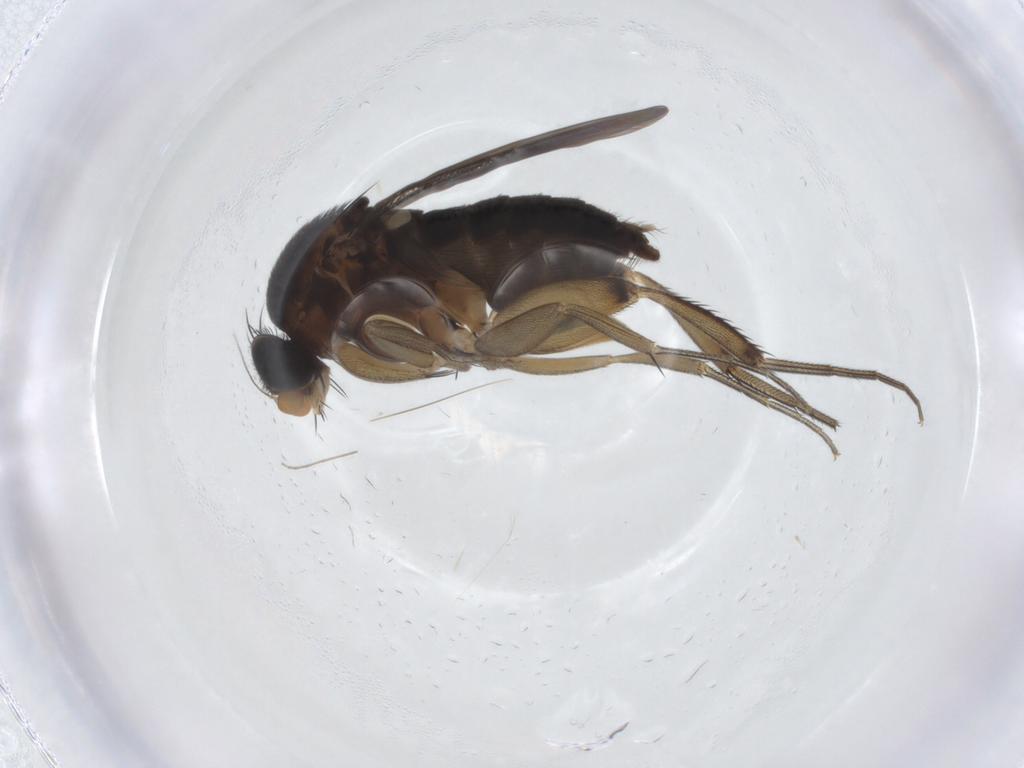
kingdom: Animalia
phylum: Arthropoda
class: Insecta
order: Diptera
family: Phoridae
